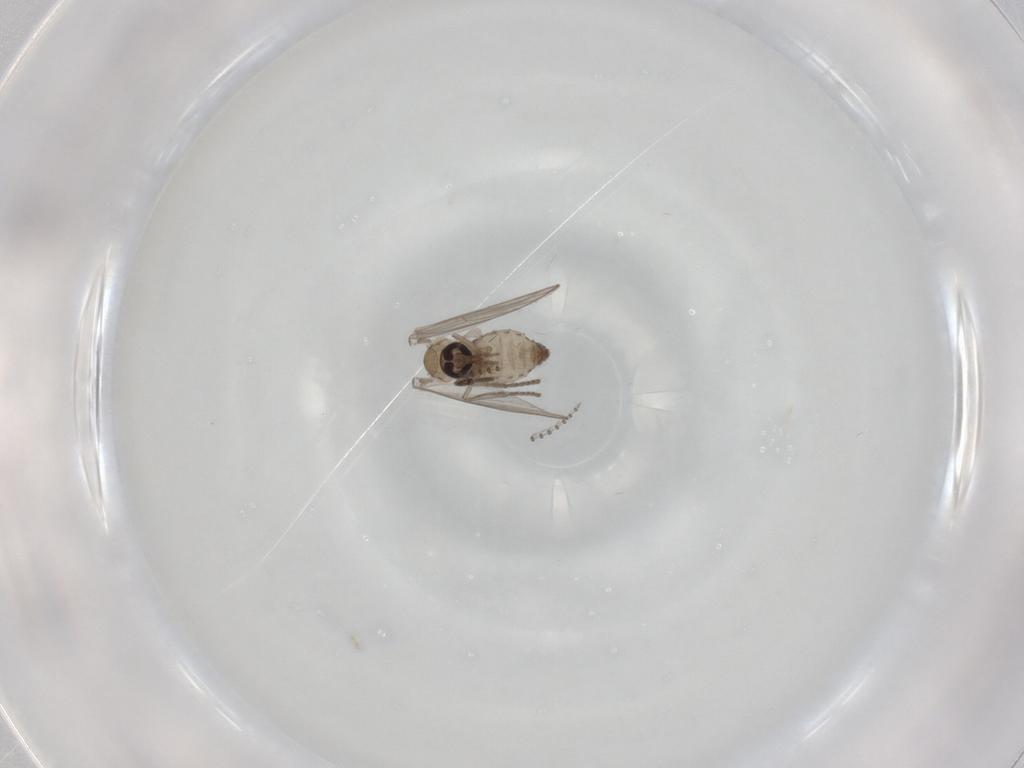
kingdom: Animalia
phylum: Arthropoda
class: Insecta
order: Diptera
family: Psychodidae
